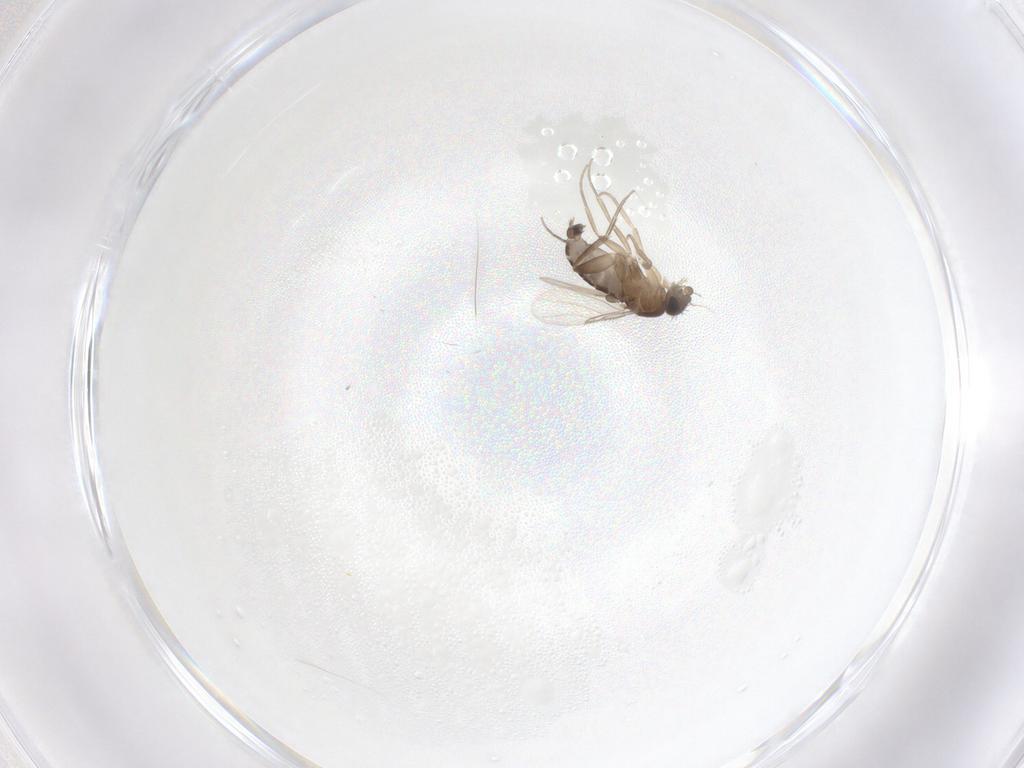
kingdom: Animalia
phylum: Arthropoda
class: Insecta
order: Diptera
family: Phoridae
